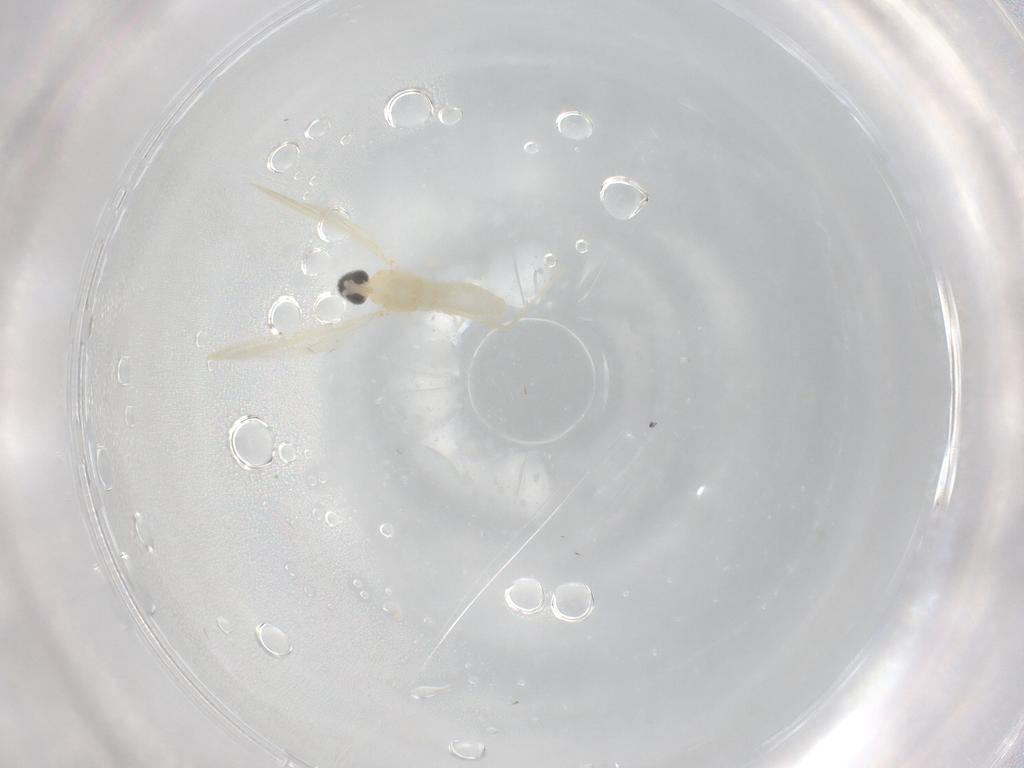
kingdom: Animalia
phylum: Arthropoda
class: Insecta
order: Diptera
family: Cecidomyiidae
